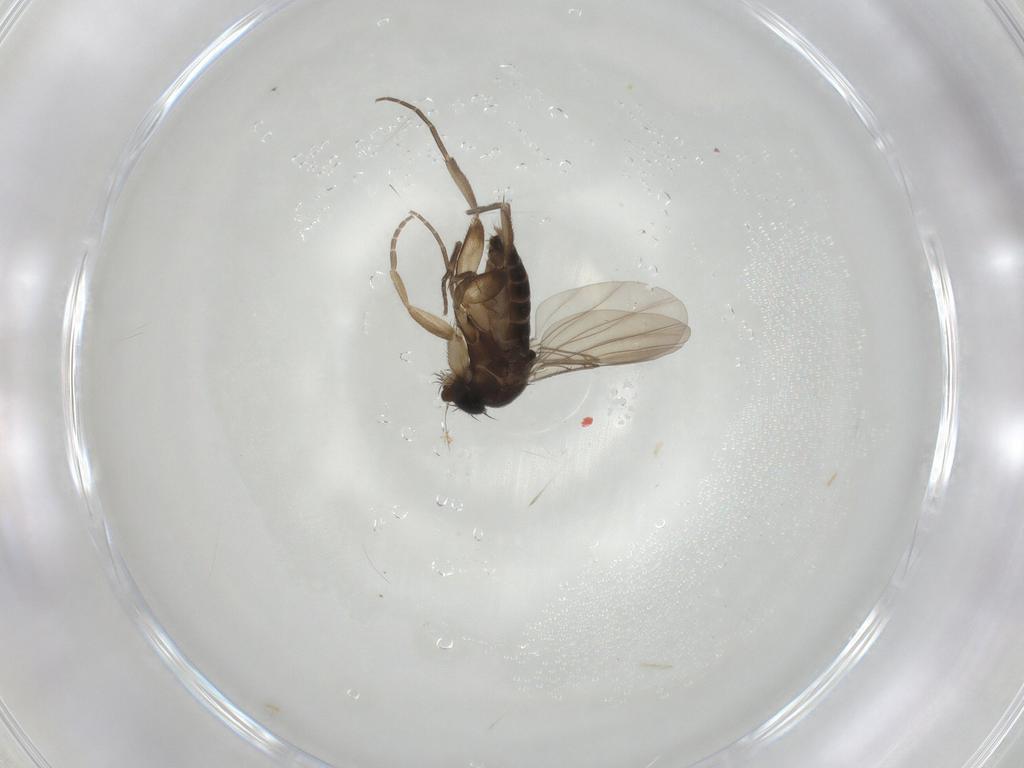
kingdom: Animalia
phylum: Arthropoda
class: Insecta
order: Diptera
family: Phoridae
